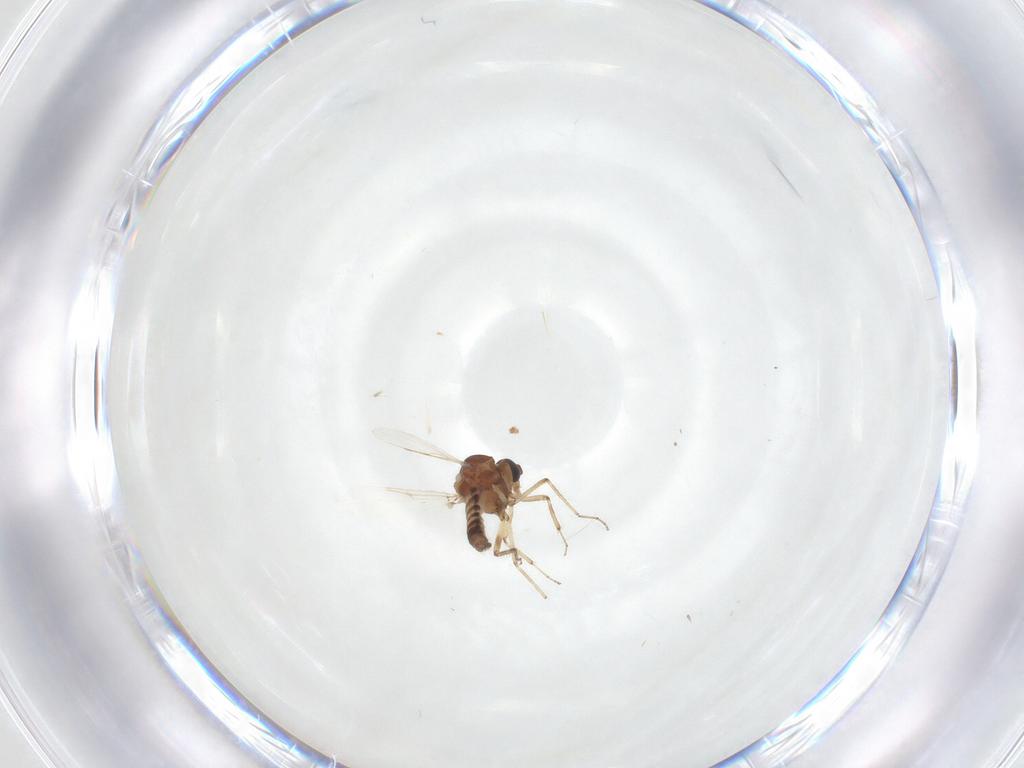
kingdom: Animalia
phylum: Arthropoda
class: Insecta
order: Diptera
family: Ceratopogonidae
